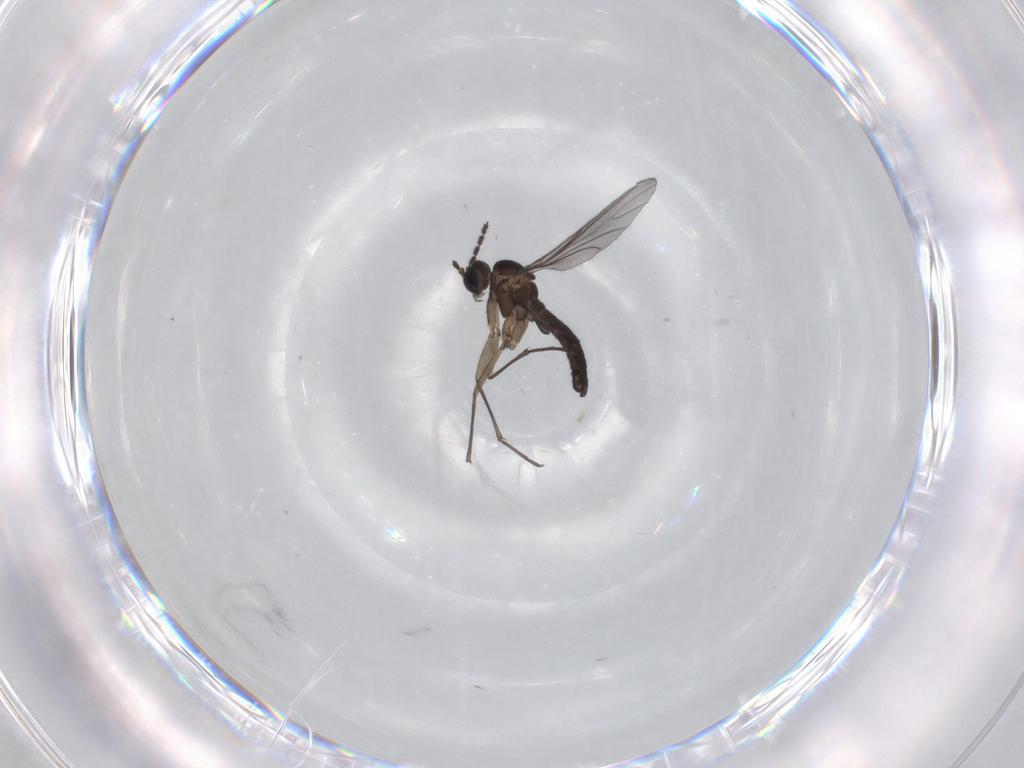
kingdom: Animalia
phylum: Arthropoda
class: Insecta
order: Diptera
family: Sciaridae
